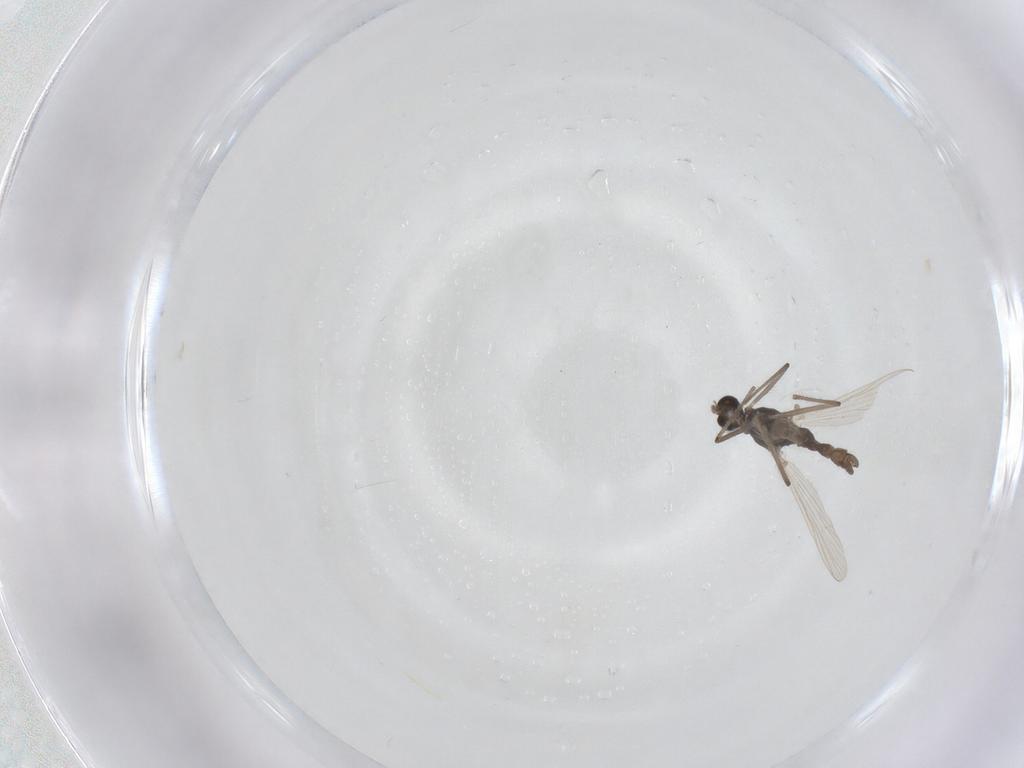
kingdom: Animalia
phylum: Arthropoda
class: Insecta
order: Diptera
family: Chironomidae
